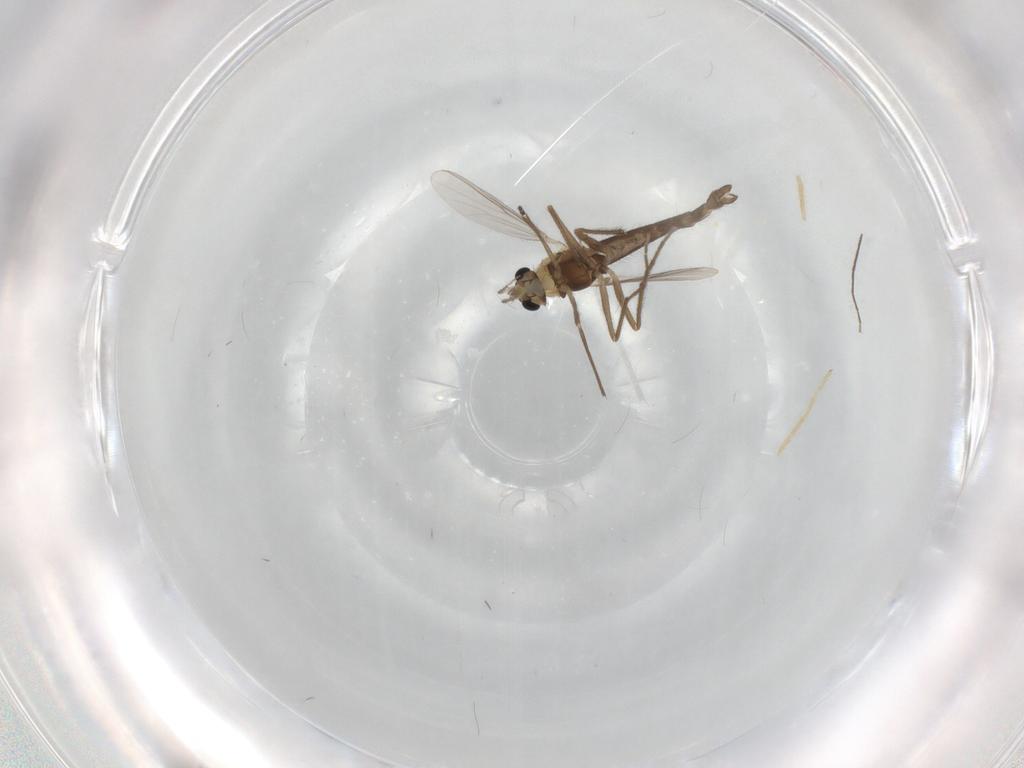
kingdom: Animalia
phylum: Arthropoda
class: Insecta
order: Diptera
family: Chironomidae
